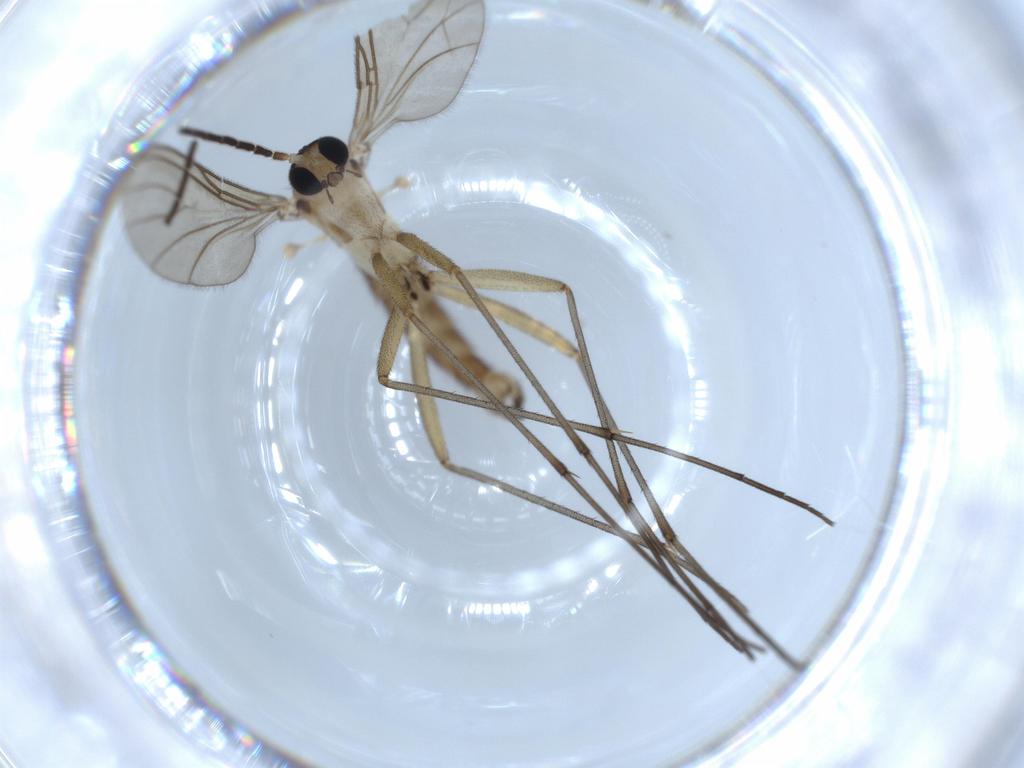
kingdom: Animalia
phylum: Arthropoda
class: Insecta
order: Diptera
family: Sciaridae
